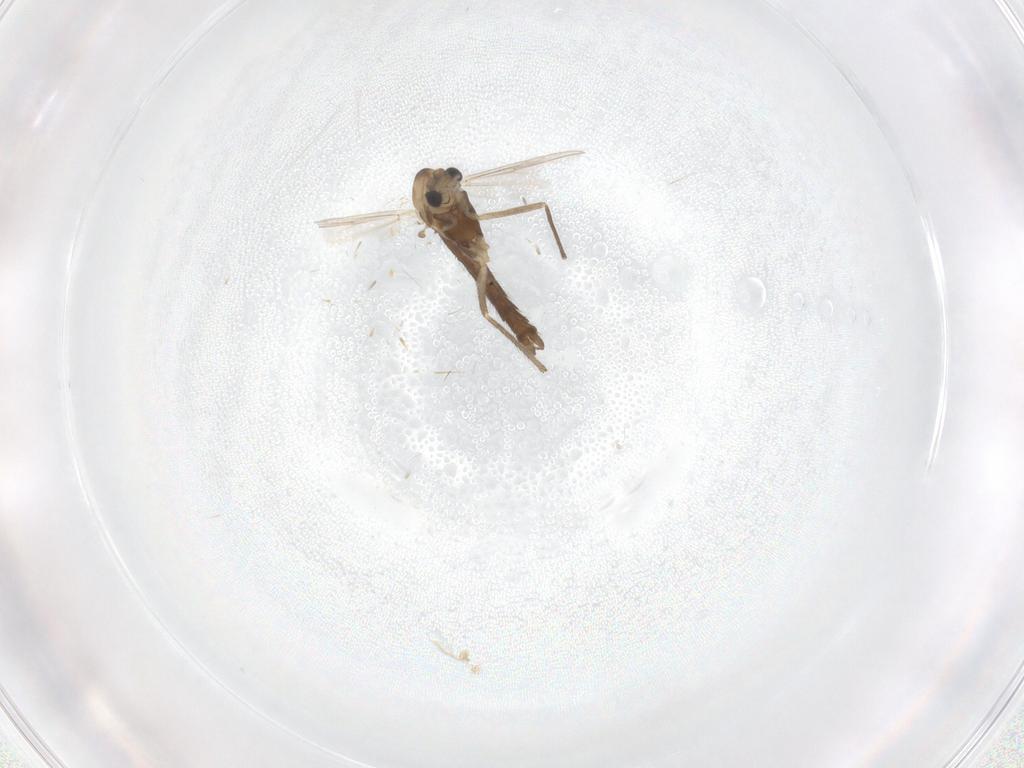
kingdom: Animalia
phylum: Arthropoda
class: Insecta
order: Diptera
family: Chironomidae
